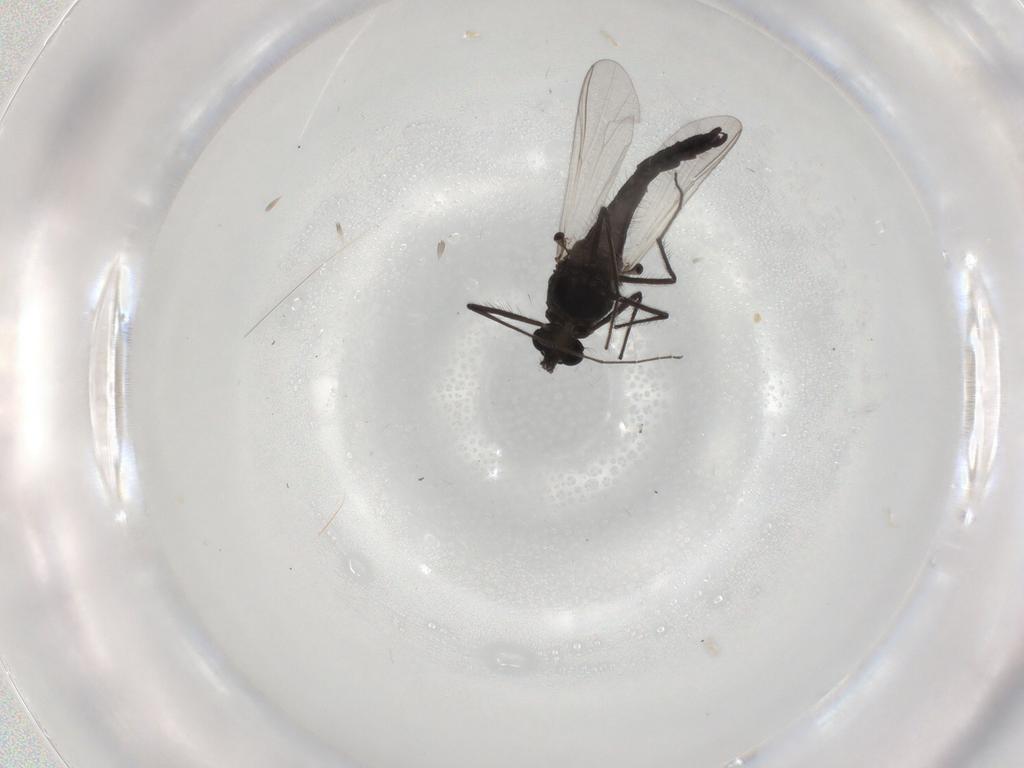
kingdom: Animalia
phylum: Arthropoda
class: Insecta
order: Diptera
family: Chironomidae
